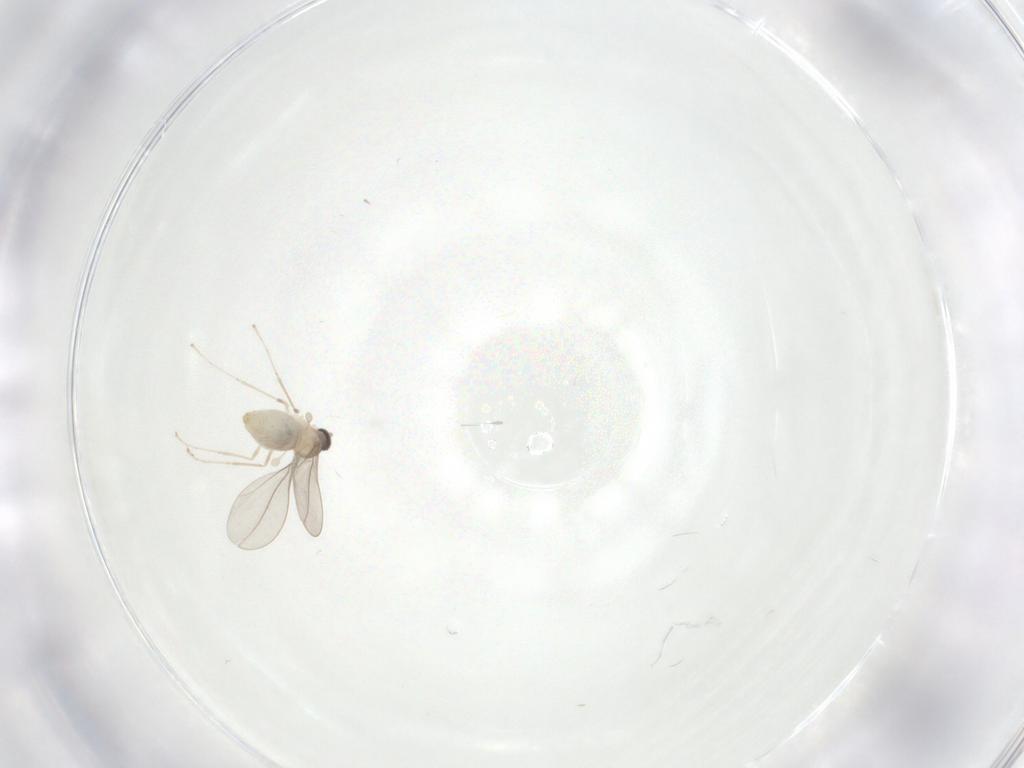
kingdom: Animalia
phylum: Arthropoda
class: Insecta
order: Diptera
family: Cecidomyiidae
